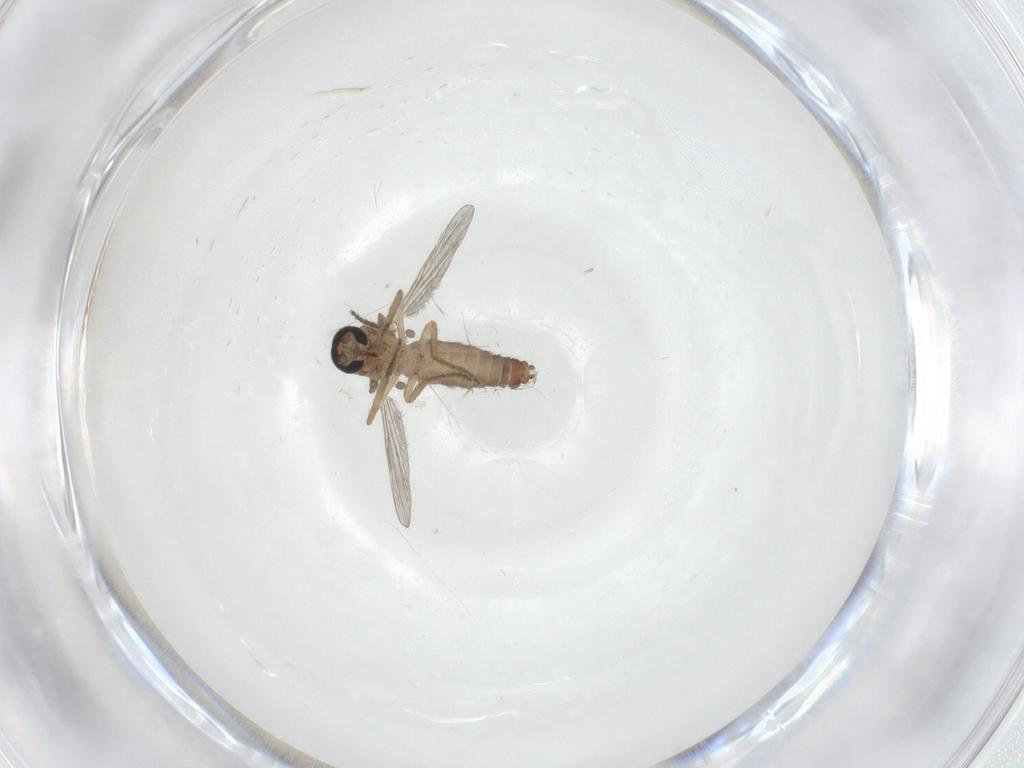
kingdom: Animalia
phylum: Arthropoda
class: Insecta
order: Diptera
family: Ceratopogonidae
